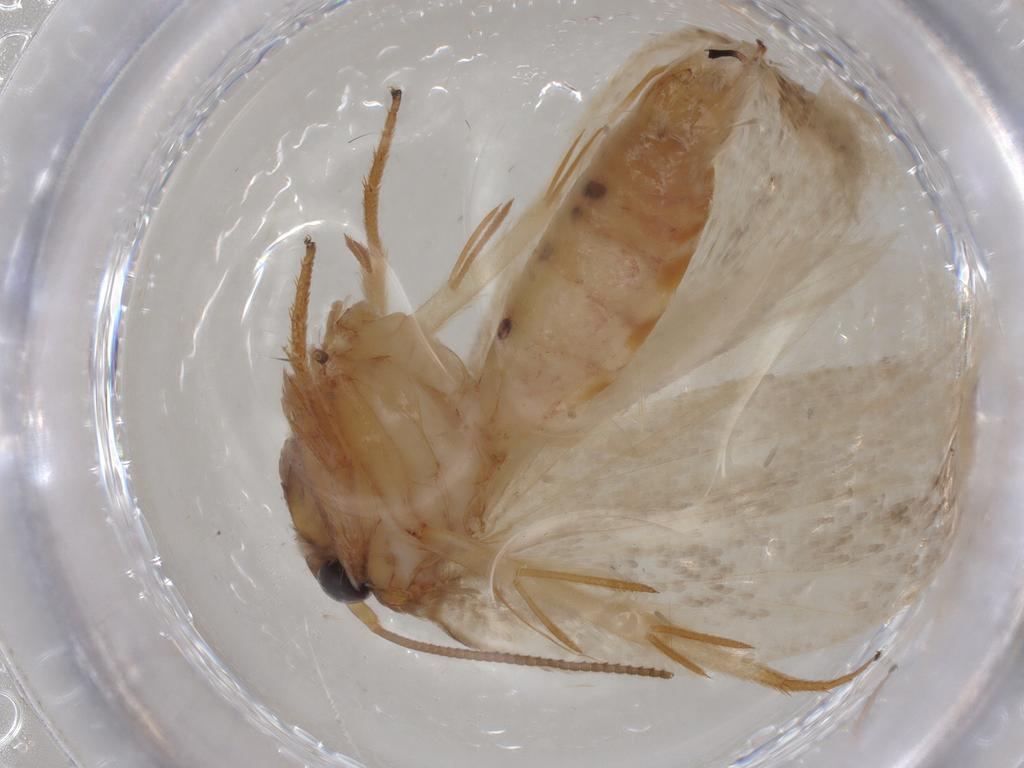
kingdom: Animalia
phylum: Arthropoda
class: Insecta
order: Lepidoptera
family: Oecophoridae
